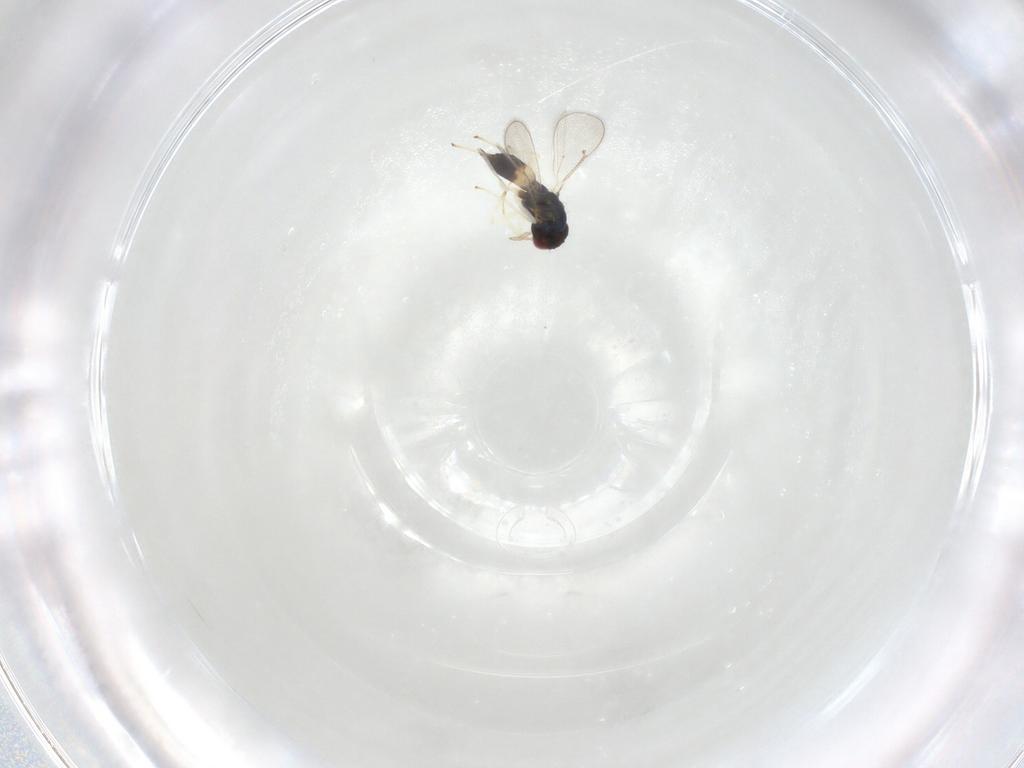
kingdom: Animalia
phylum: Arthropoda
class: Insecta
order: Hymenoptera
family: Eulophidae
